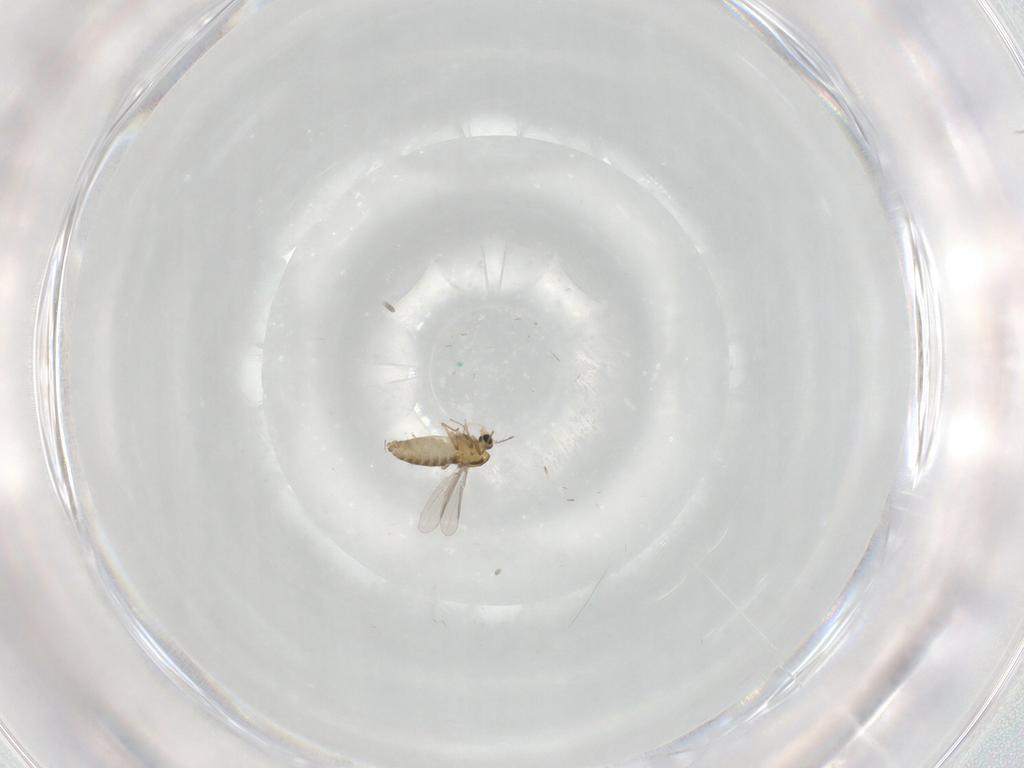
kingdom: Animalia
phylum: Arthropoda
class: Insecta
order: Diptera
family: Chironomidae
